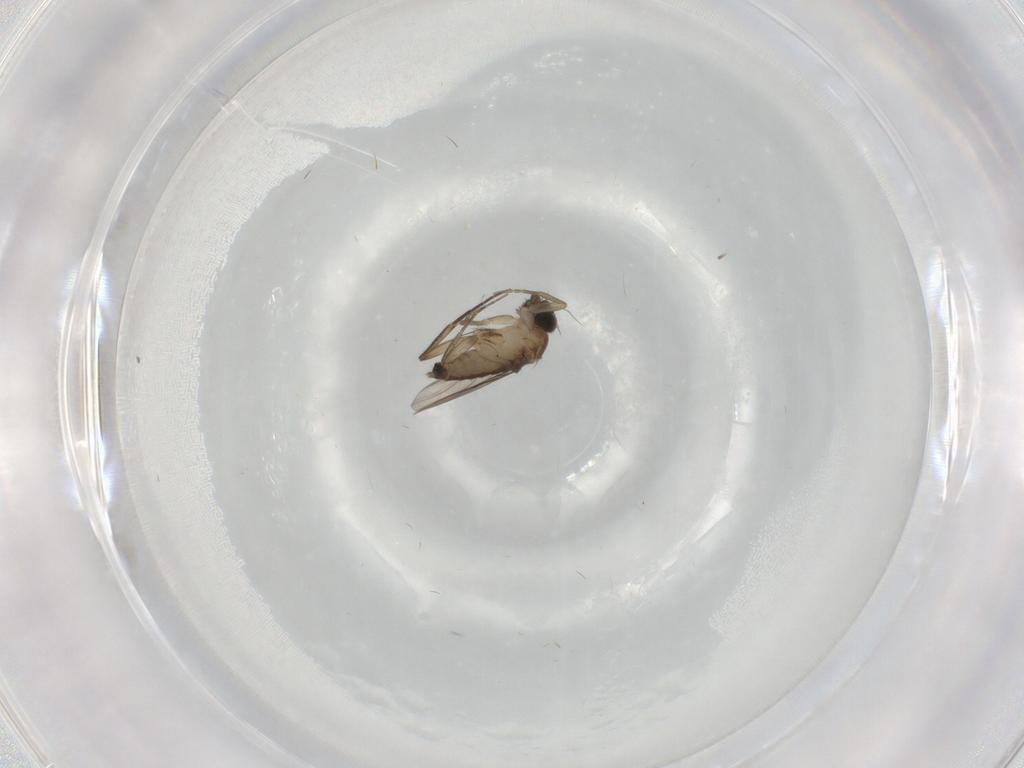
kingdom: Animalia
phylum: Arthropoda
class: Insecta
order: Diptera
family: Phoridae
